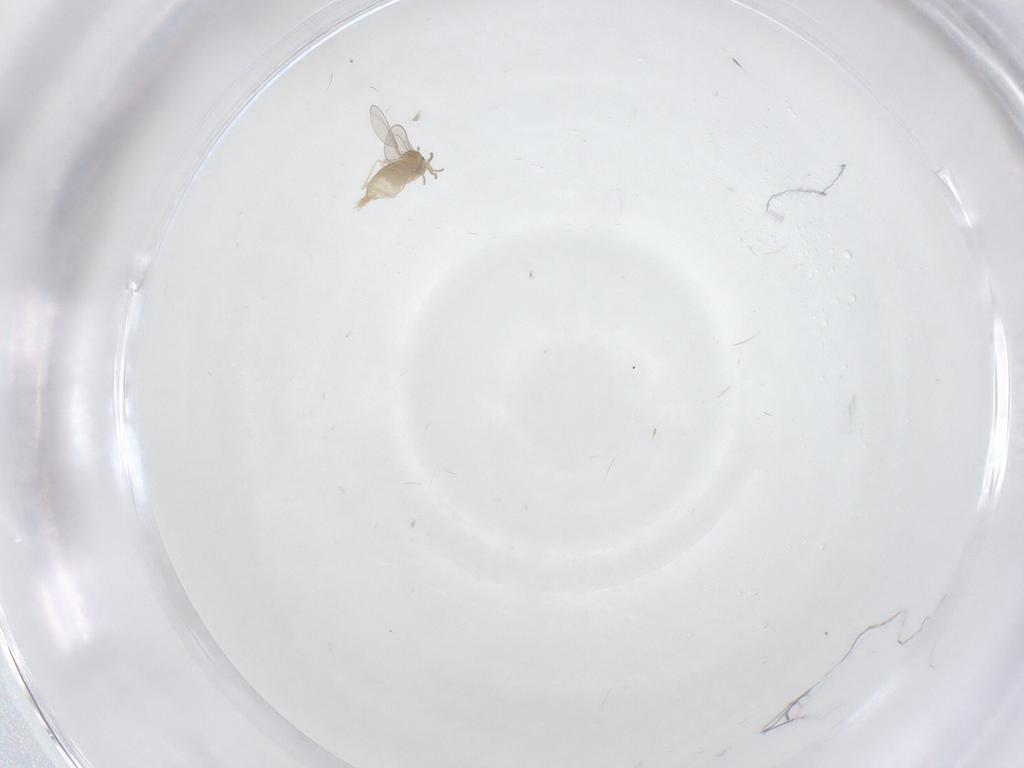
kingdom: Animalia
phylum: Arthropoda
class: Insecta
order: Diptera
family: Cecidomyiidae
